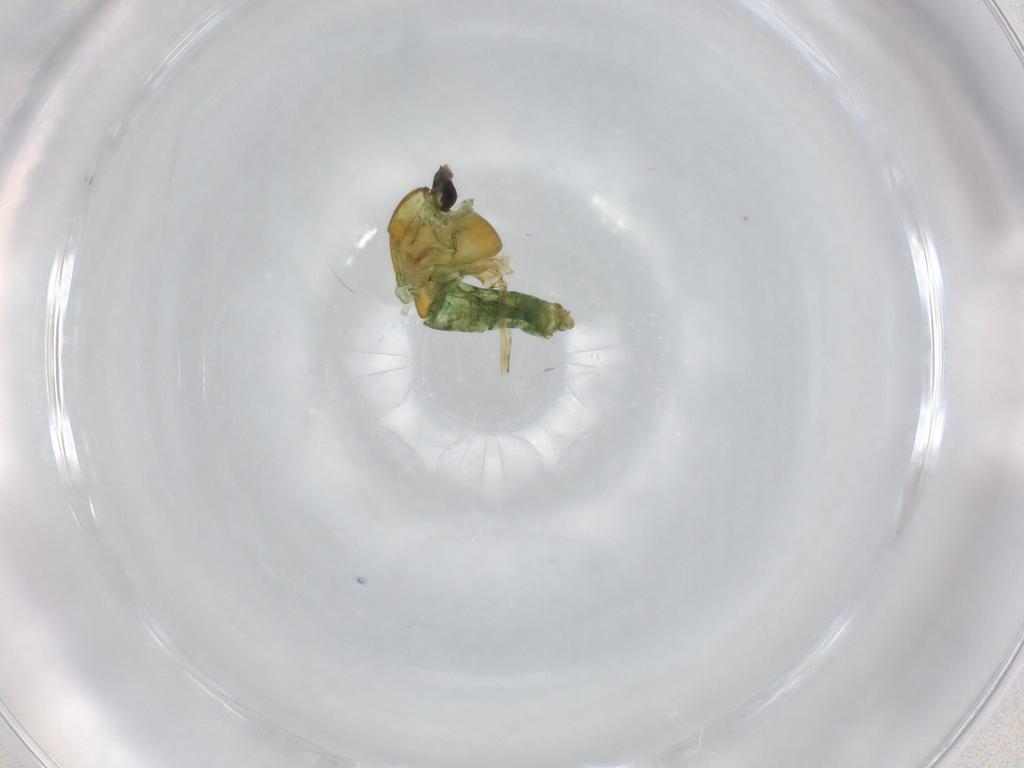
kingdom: Animalia
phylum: Arthropoda
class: Insecta
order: Diptera
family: Chironomidae
